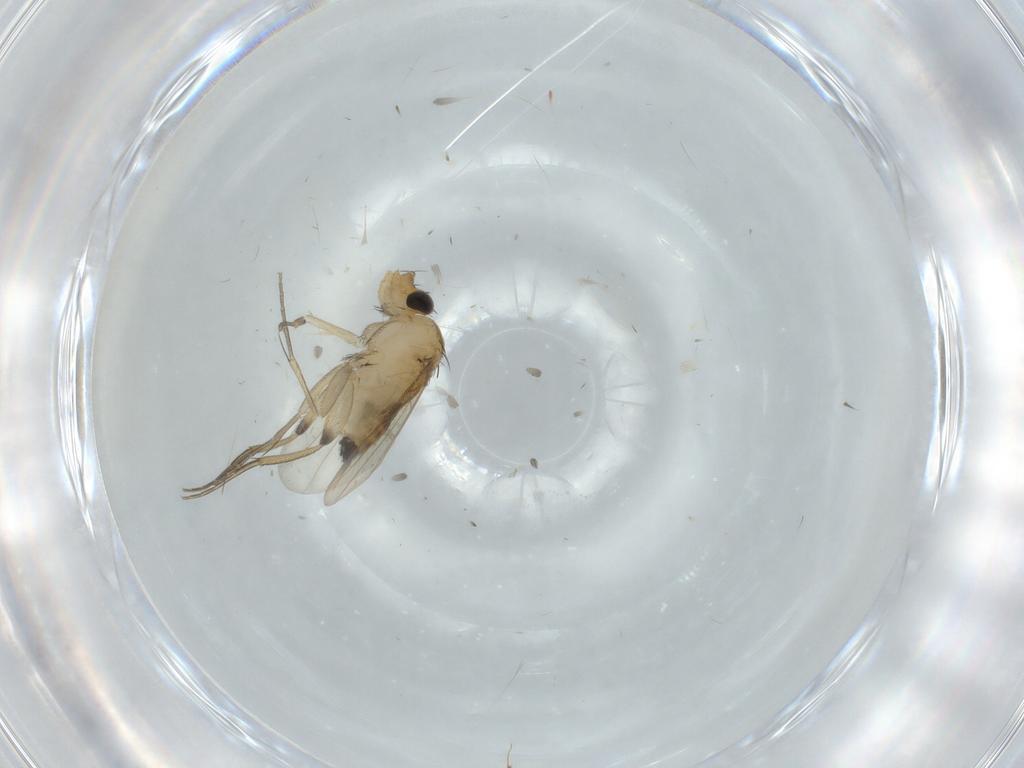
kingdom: Animalia
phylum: Arthropoda
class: Insecta
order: Diptera
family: Phoridae
